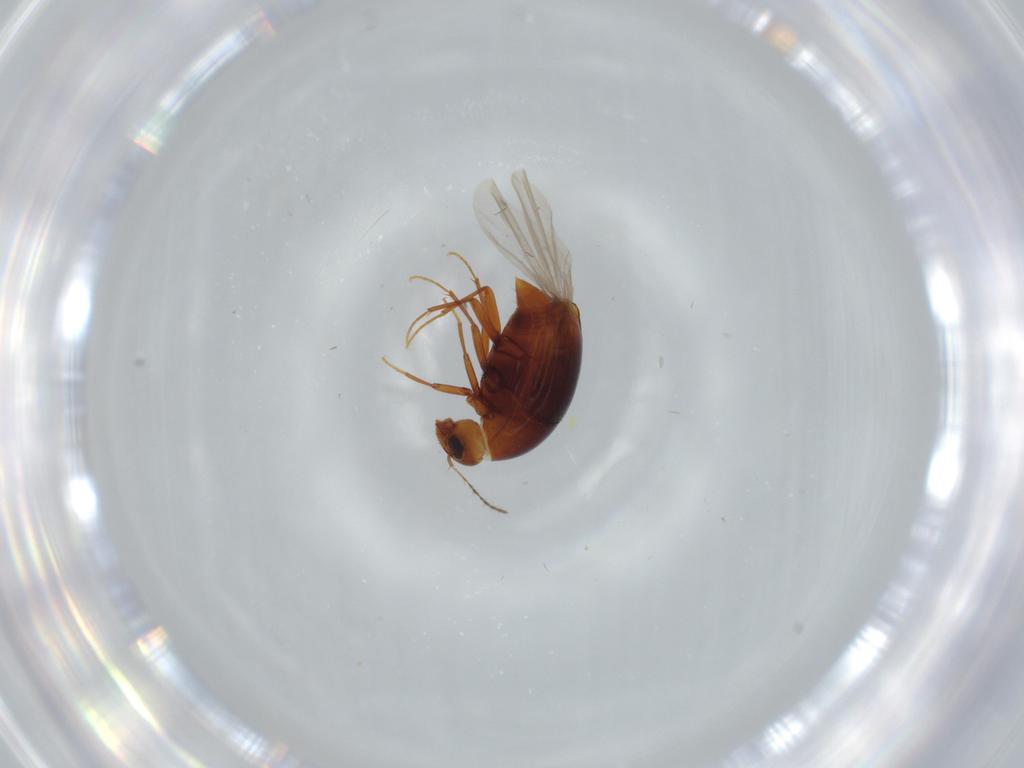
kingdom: Animalia
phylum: Arthropoda
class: Insecta
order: Coleoptera
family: Staphylinidae
